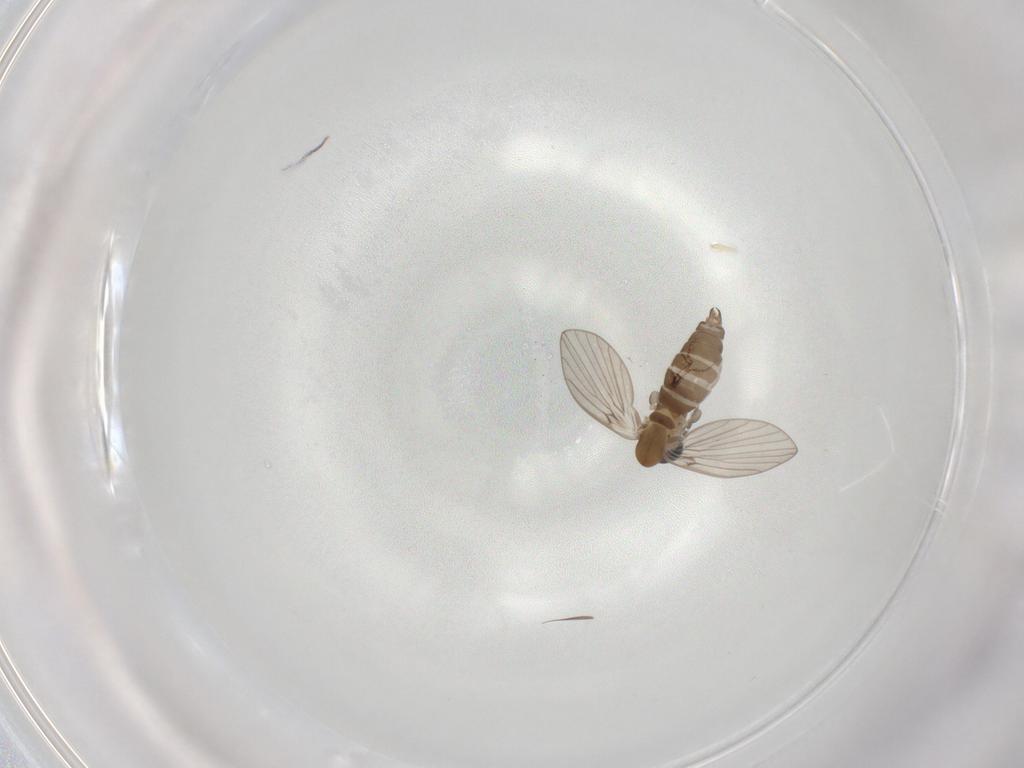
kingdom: Animalia
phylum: Arthropoda
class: Insecta
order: Diptera
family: Psychodidae
